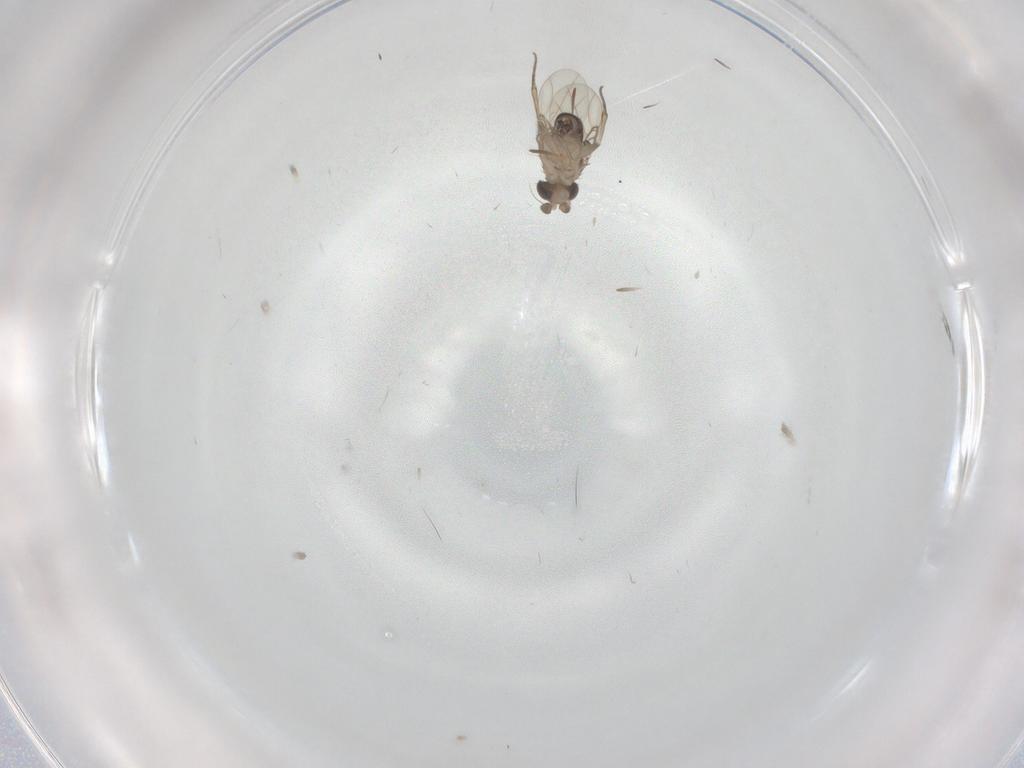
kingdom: Animalia
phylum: Arthropoda
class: Insecta
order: Diptera
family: Phoridae
